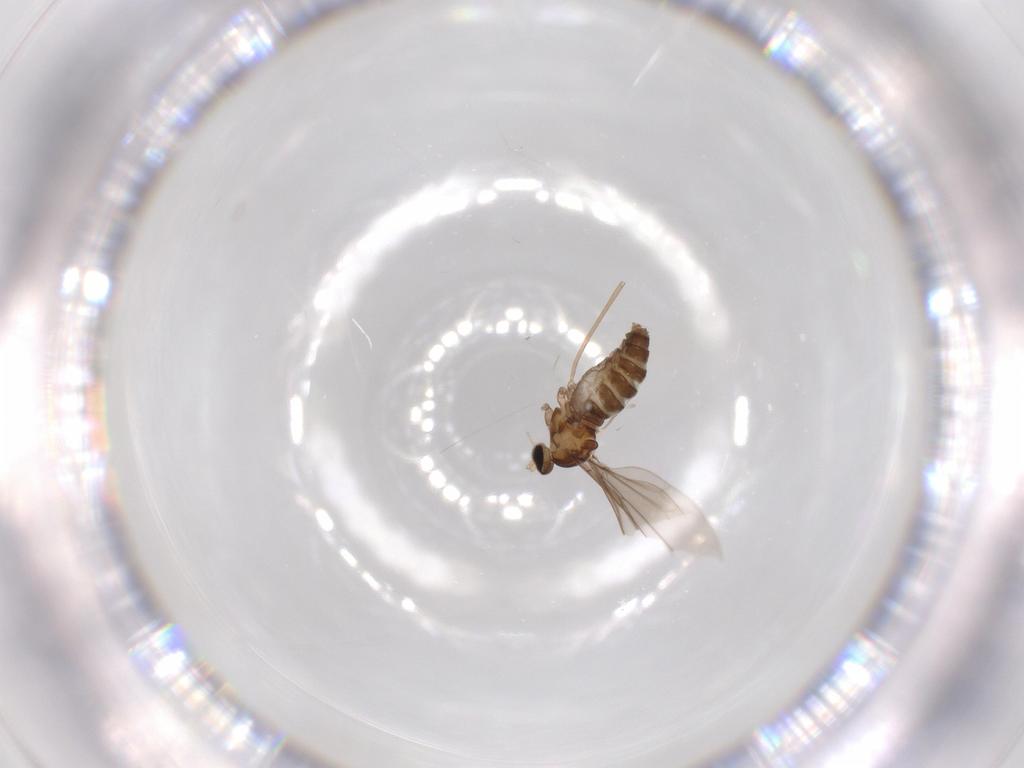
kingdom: Animalia
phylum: Arthropoda
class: Insecta
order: Diptera
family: Cecidomyiidae
